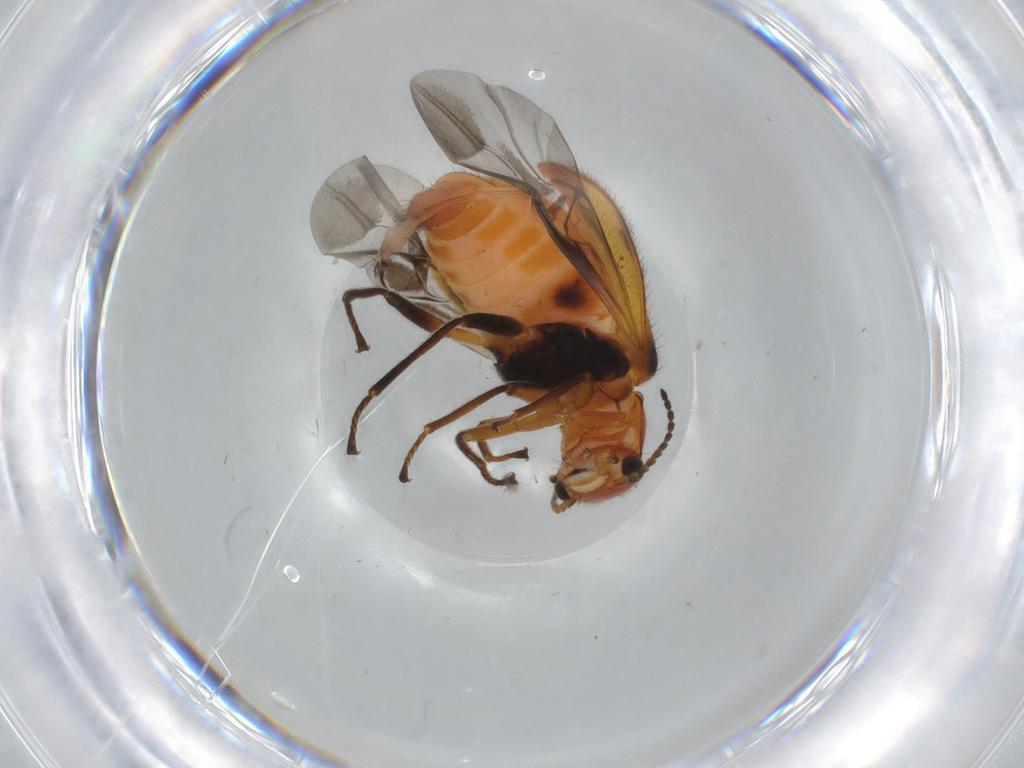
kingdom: Animalia
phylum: Arthropoda
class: Insecta
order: Coleoptera
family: Melyridae
